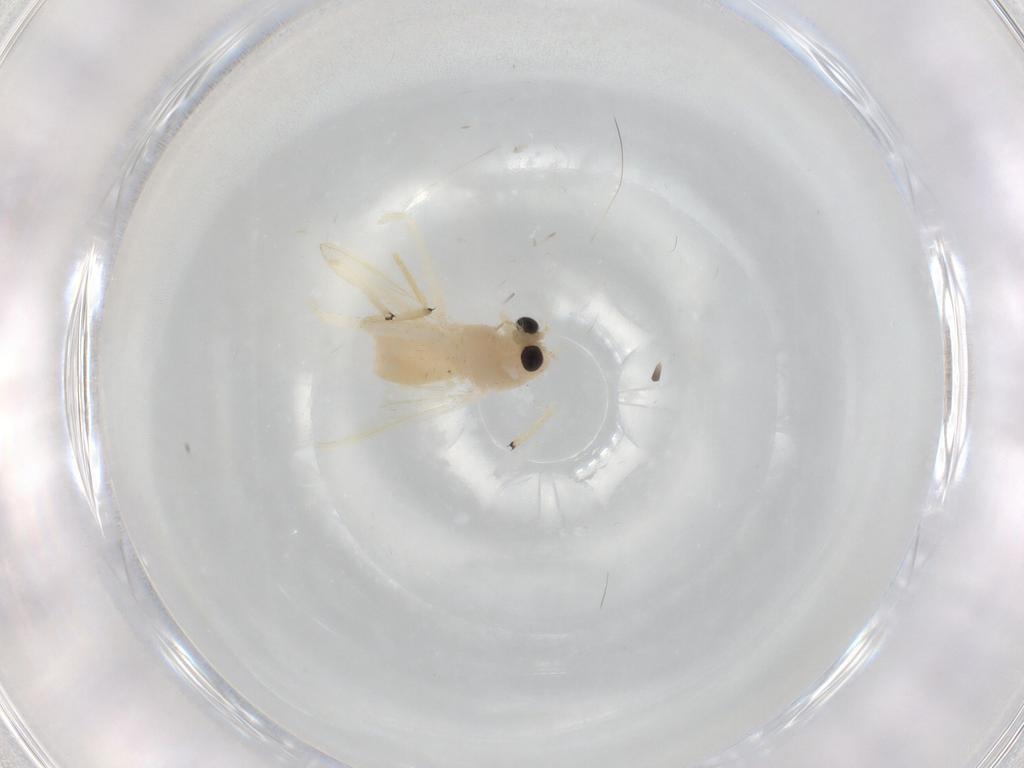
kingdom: Animalia
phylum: Arthropoda
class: Insecta
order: Diptera
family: Chironomidae
